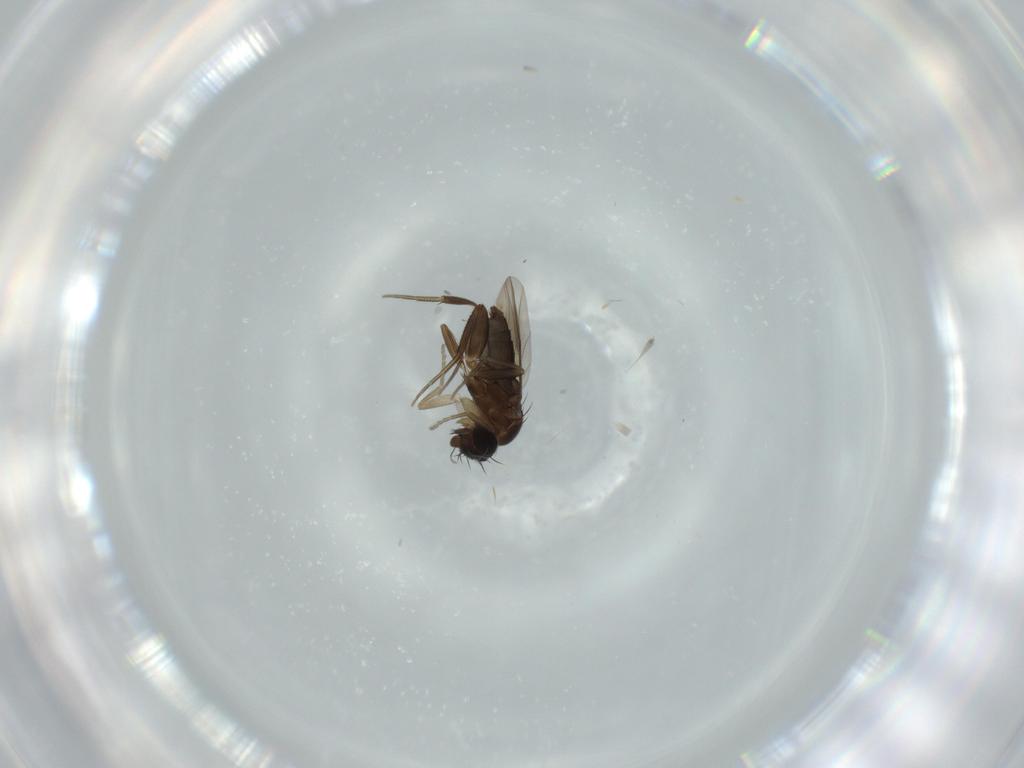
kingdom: Animalia
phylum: Arthropoda
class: Insecta
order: Diptera
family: Phoridae
